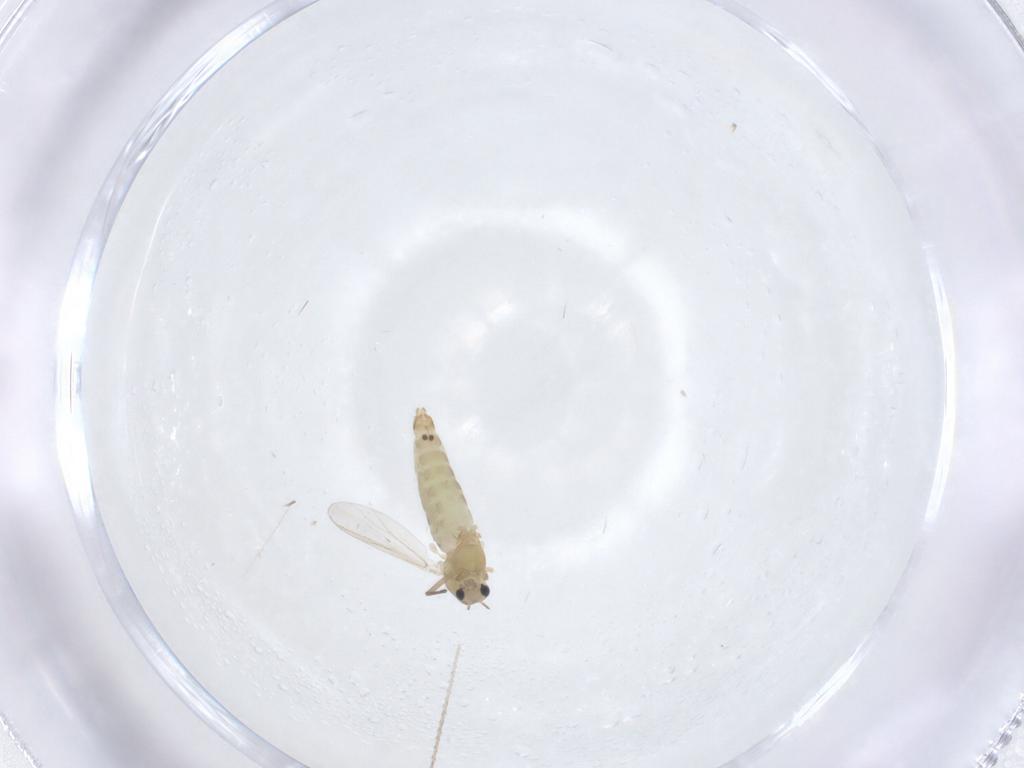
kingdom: Animalia
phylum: Arthropoda
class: Insecta
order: Diptera
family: Chironomidae
